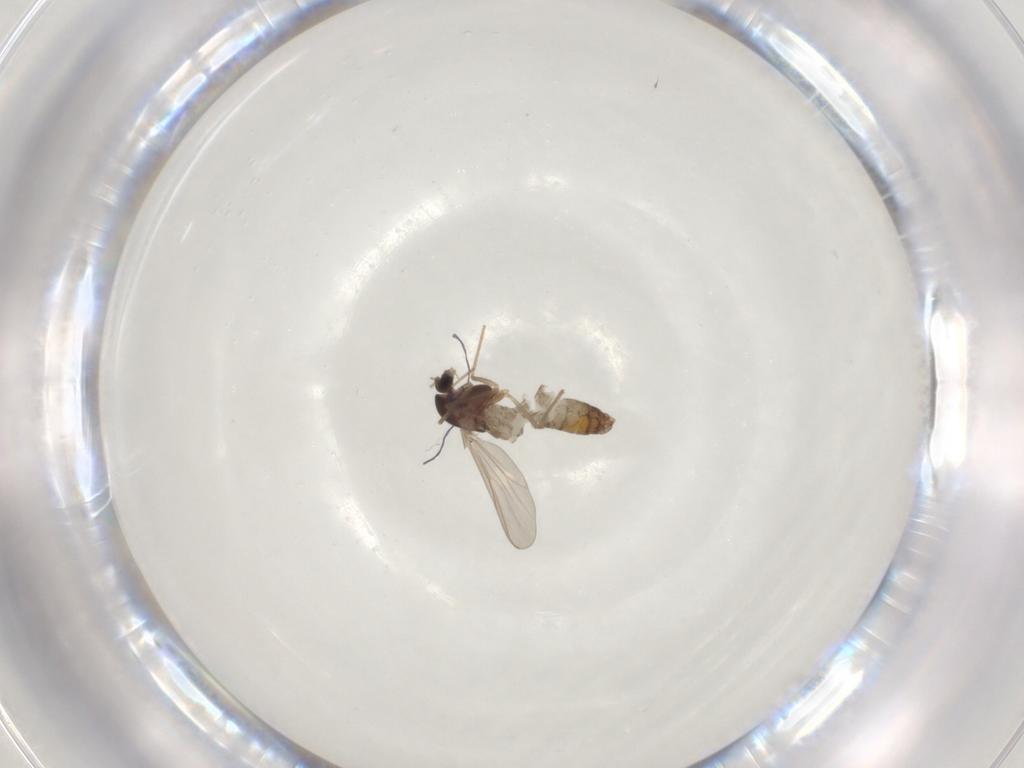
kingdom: Animalia
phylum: Arthropoda
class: Insecta
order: Diptera
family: Chironomidae
